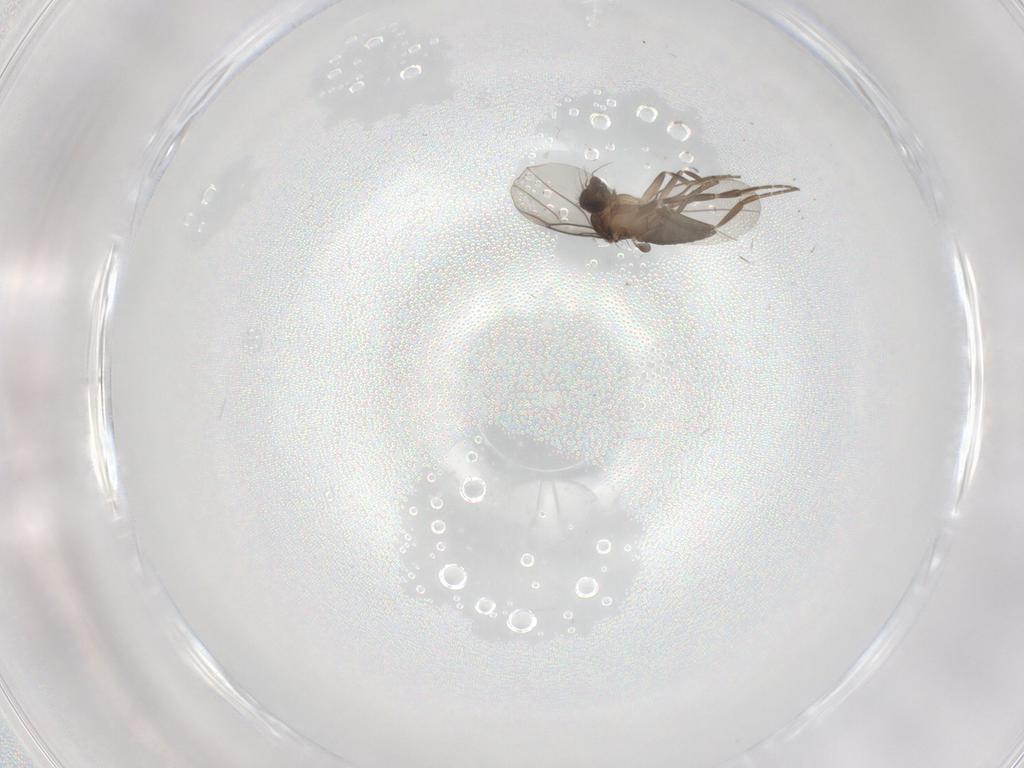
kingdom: Animalia
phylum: Arthropoda
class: Insecta
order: Diptera
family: Phoridae
